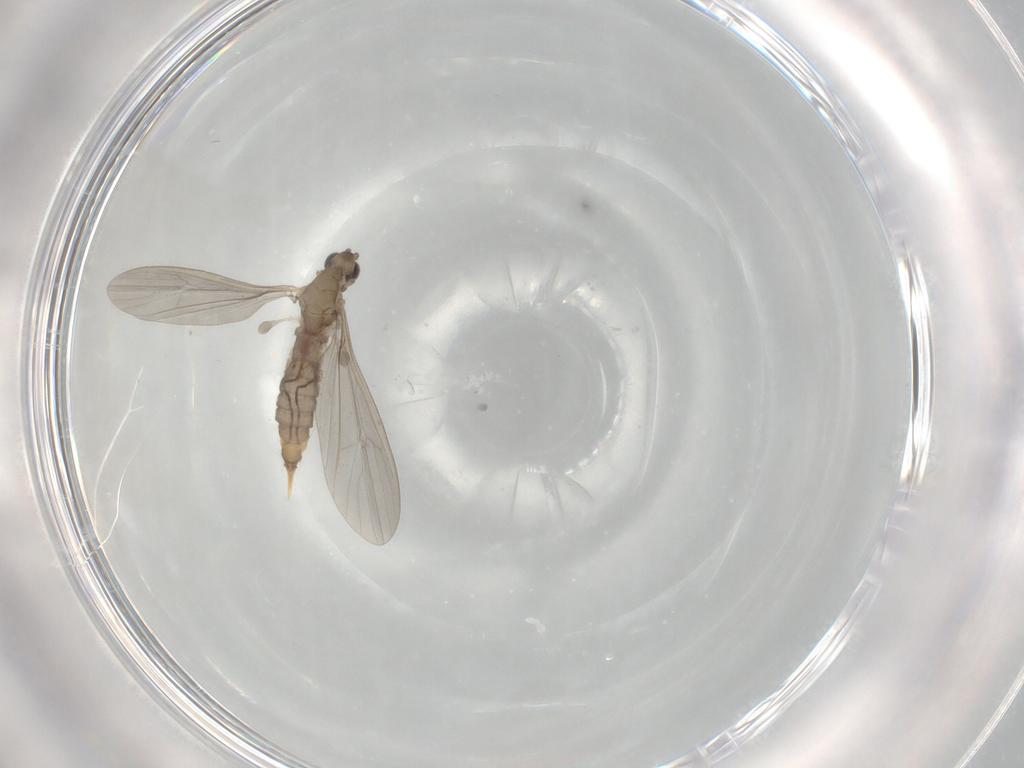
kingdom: Animalia
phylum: Arthropoda
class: Insecta
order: Diptera
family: Limoniidae
